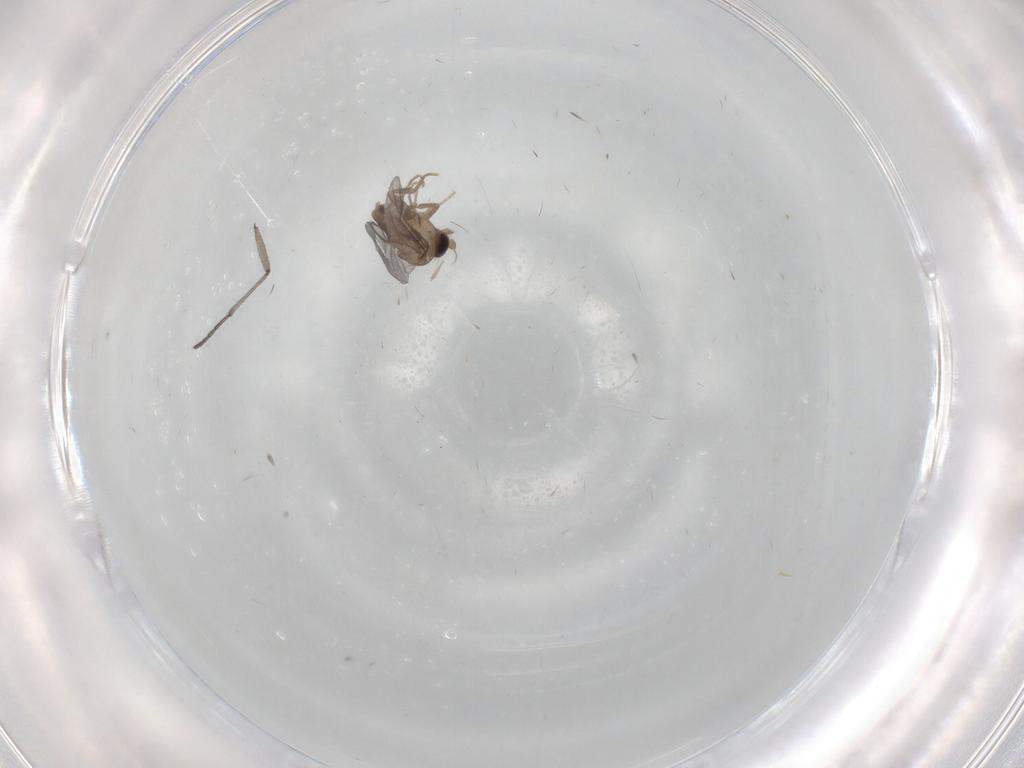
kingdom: Animalia
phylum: Arthropoda
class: Insecta
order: Diptera
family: Sciaridae
